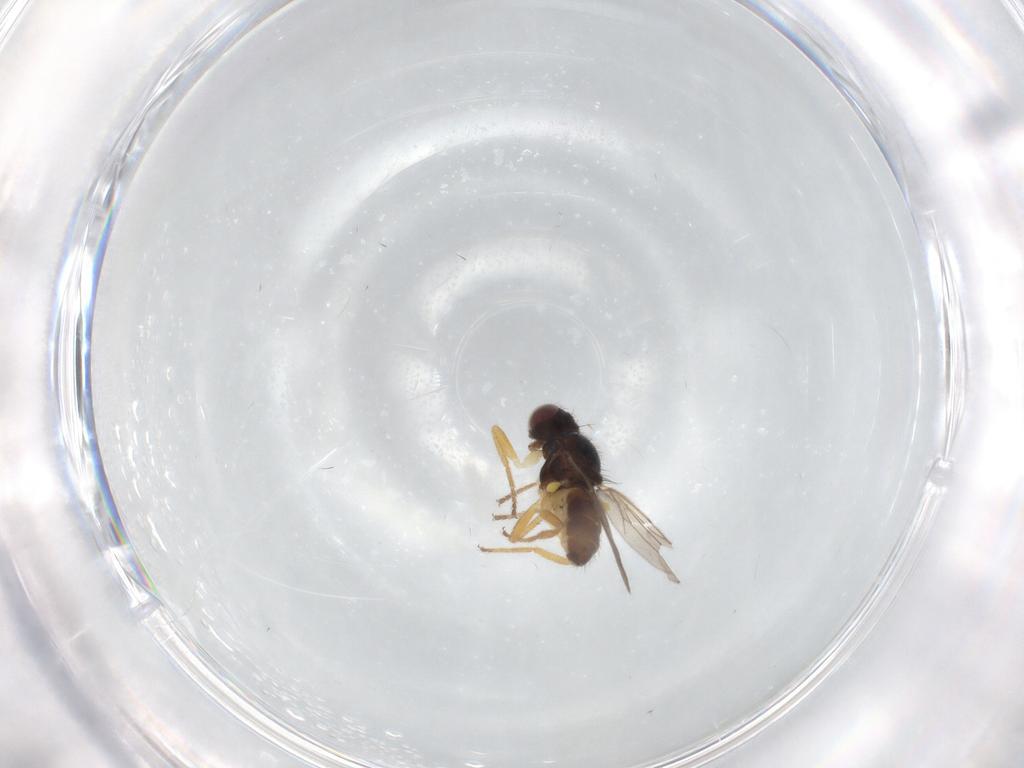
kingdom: Animalia
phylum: Arthropoda
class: Insecta
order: Diptera
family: Chloropidae
